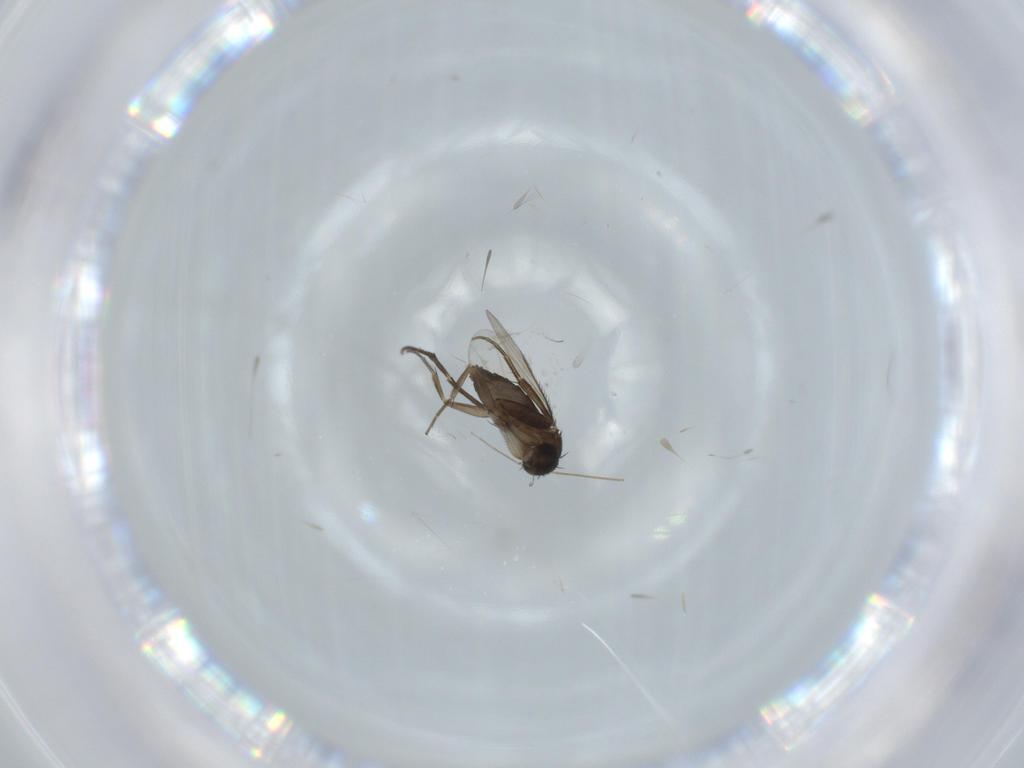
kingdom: Animalia
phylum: Arthropoda
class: Insecta
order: Diptera
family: Phoridae
